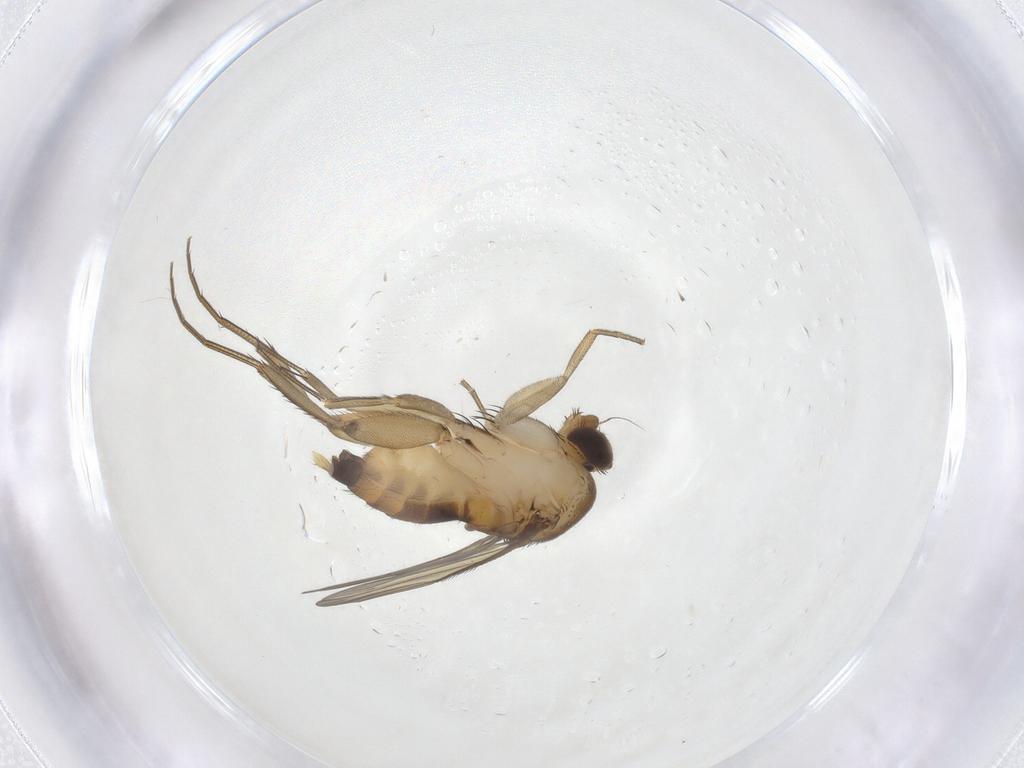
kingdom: Animalia
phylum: Arthropoda
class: Insecta
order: Diptera
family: Phoridae
